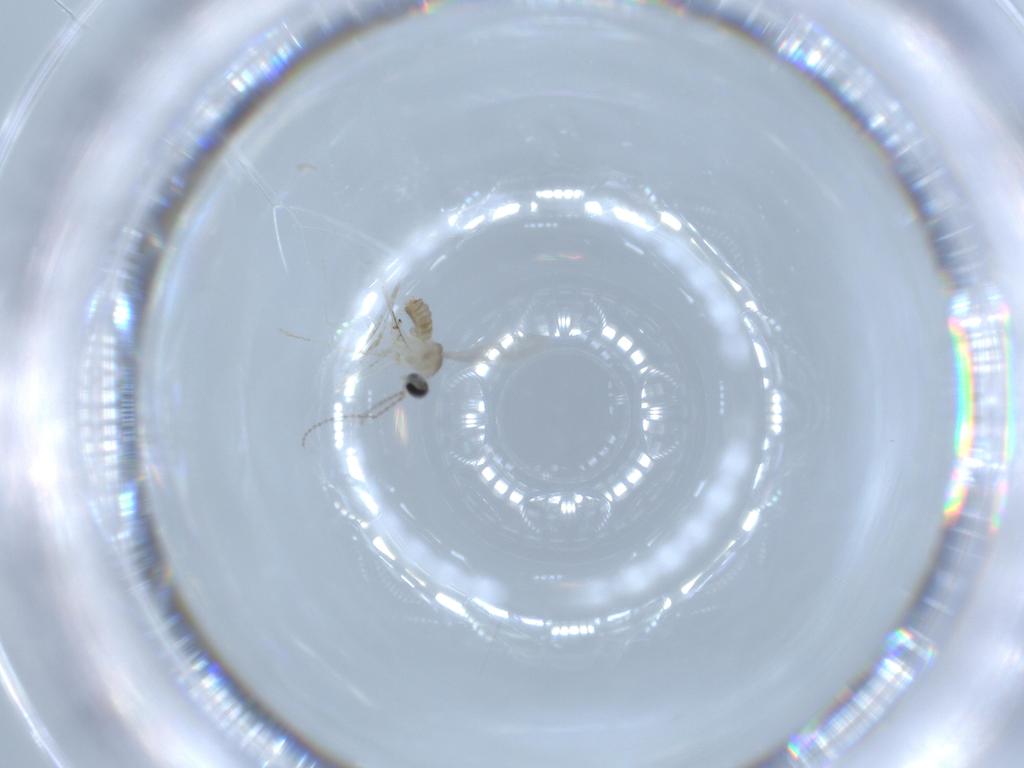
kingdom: Animalia
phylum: Arthropoda
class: Insecta
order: Diptera
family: Cecidomyiidae
